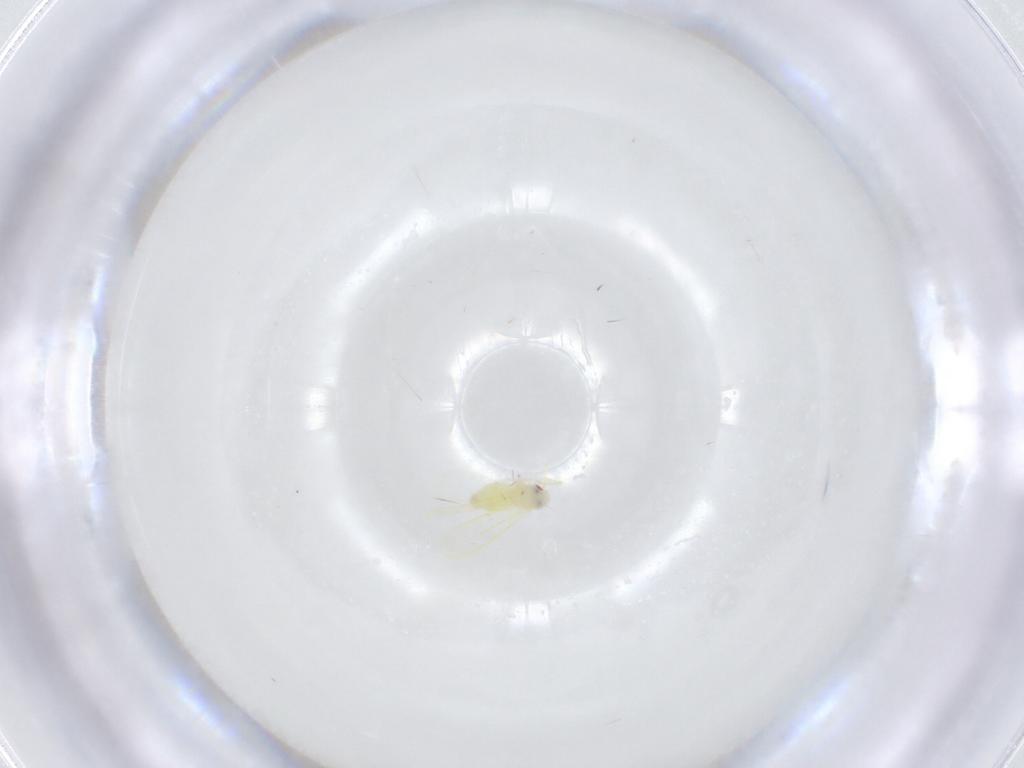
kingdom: Animalia
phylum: Arthropoda
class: Insecta
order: Hemiptera
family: Aleyrodidae
